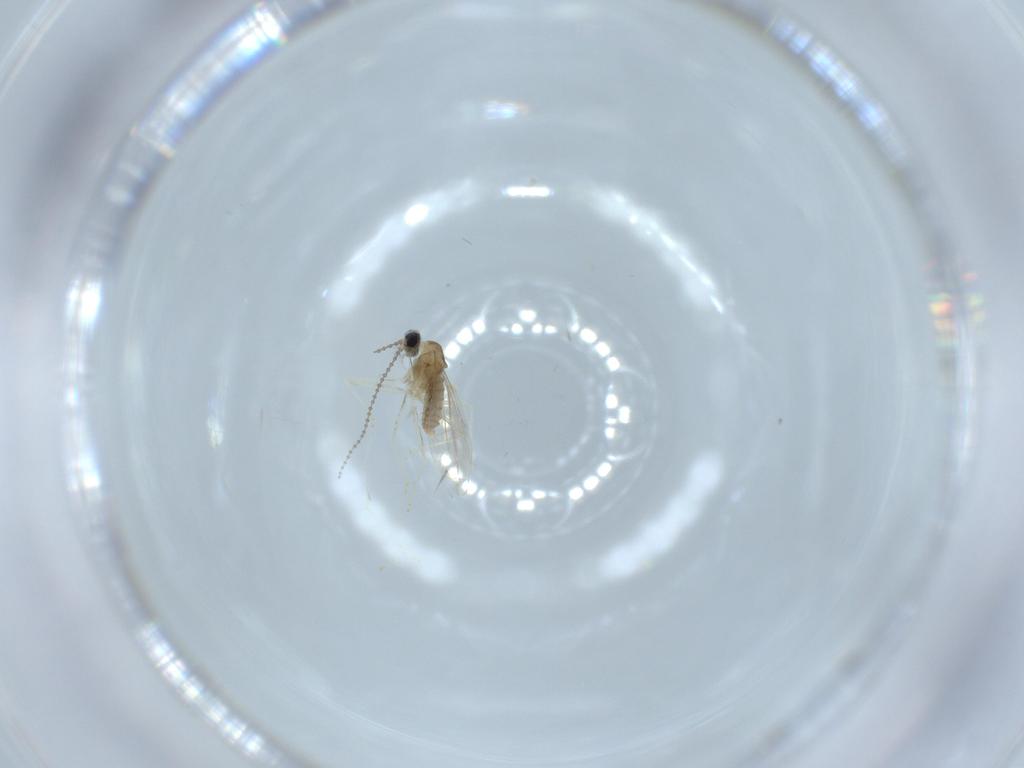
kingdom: Animalia
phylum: Arthropoda
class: Insecta
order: Diptera
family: Cecidomyiidae
